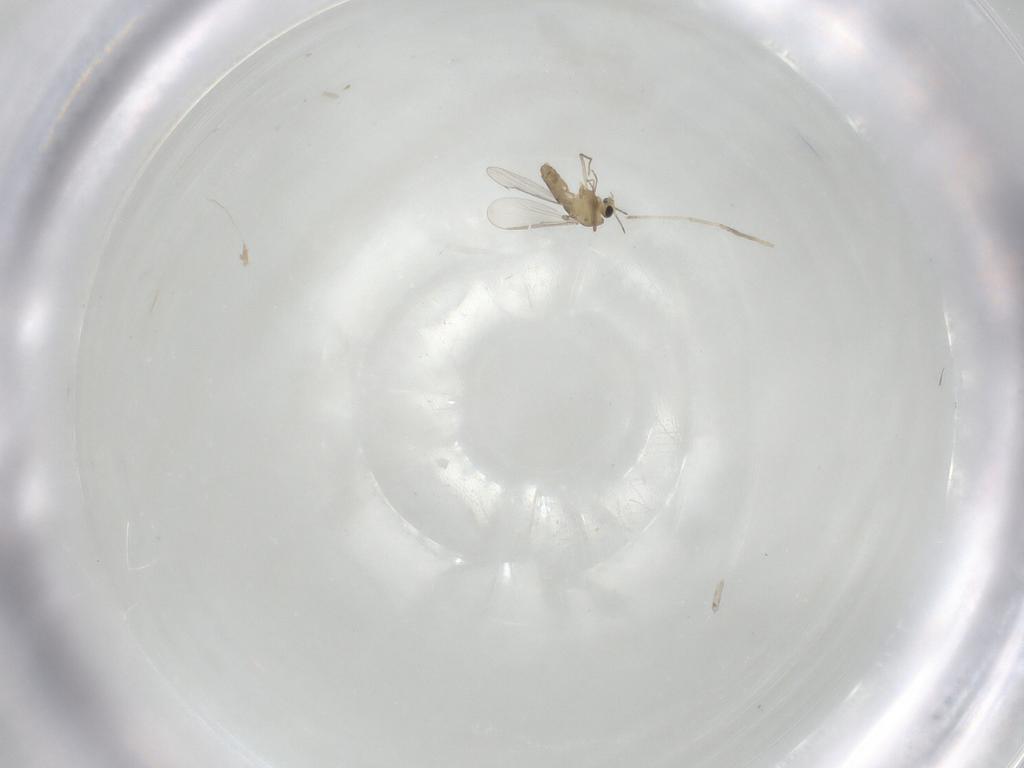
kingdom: Animalia
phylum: Arthropoda
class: Insecta
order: Diptera
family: Chironomidae
